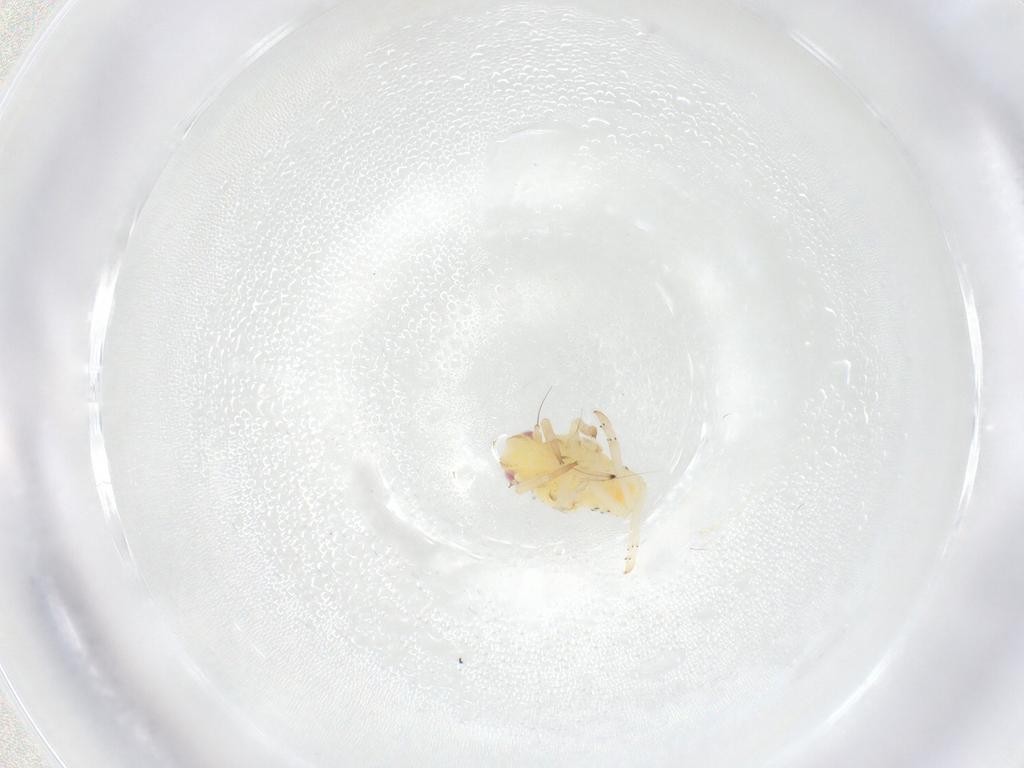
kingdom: Animalia
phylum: Arthropoda
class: Insecta
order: Hemiptera
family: Tropiduchidae
